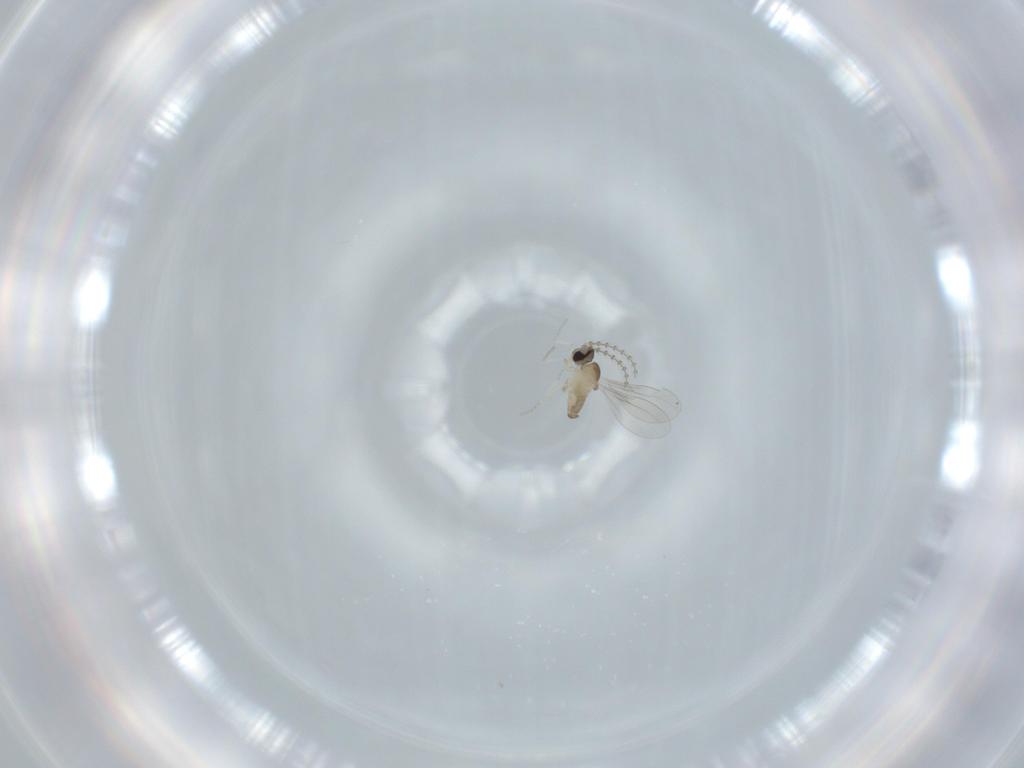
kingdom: Animalia
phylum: Arthropoda
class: Insecta
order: Diptera
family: Cecidomyiidae
